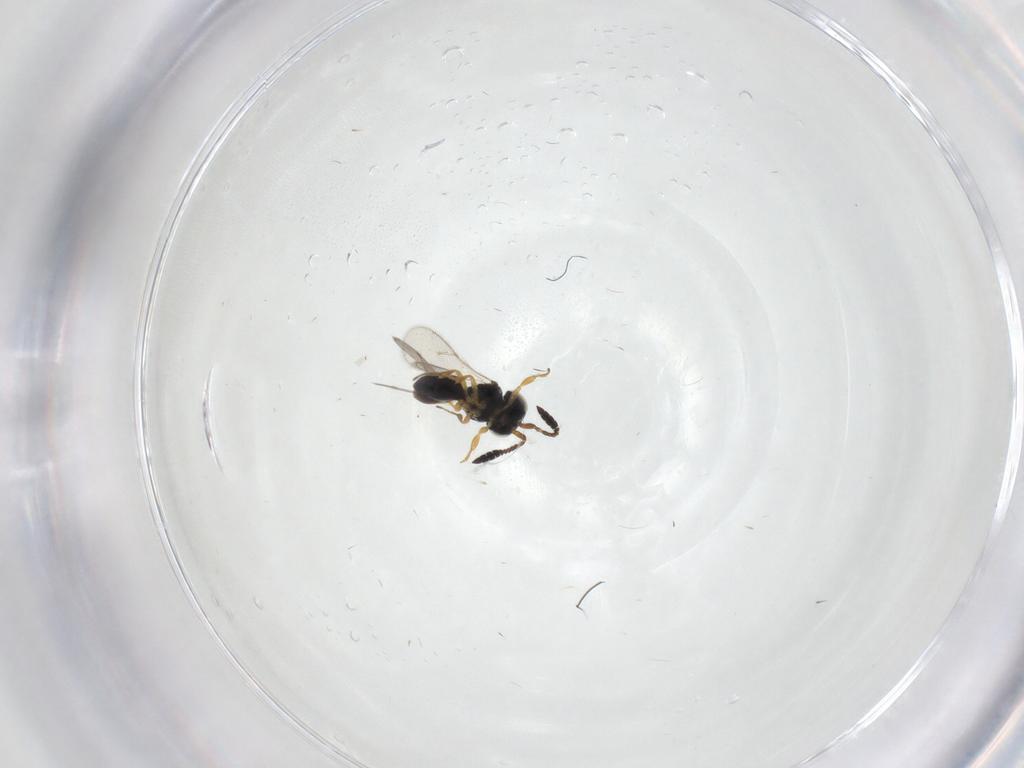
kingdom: Animalia
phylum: Arthropoda
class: Insecta
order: Hymenoptera
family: Scelionidae
